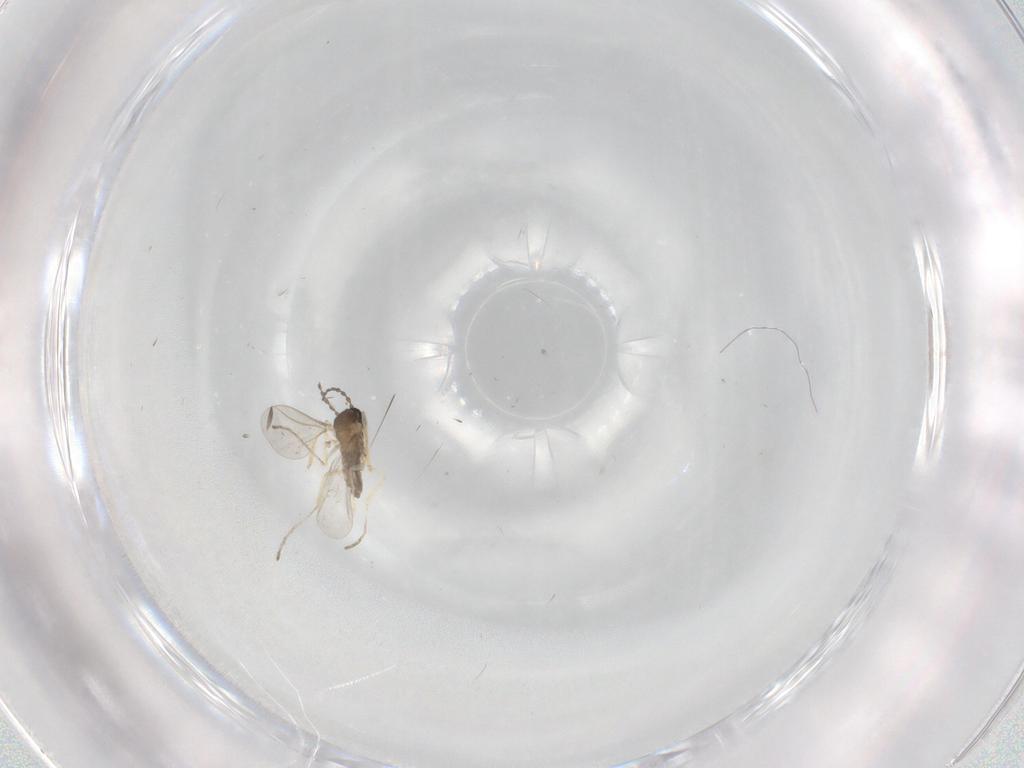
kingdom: Animalia
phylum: Arthropoda
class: Insecta
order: Diptera
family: Cecidomyiidae
